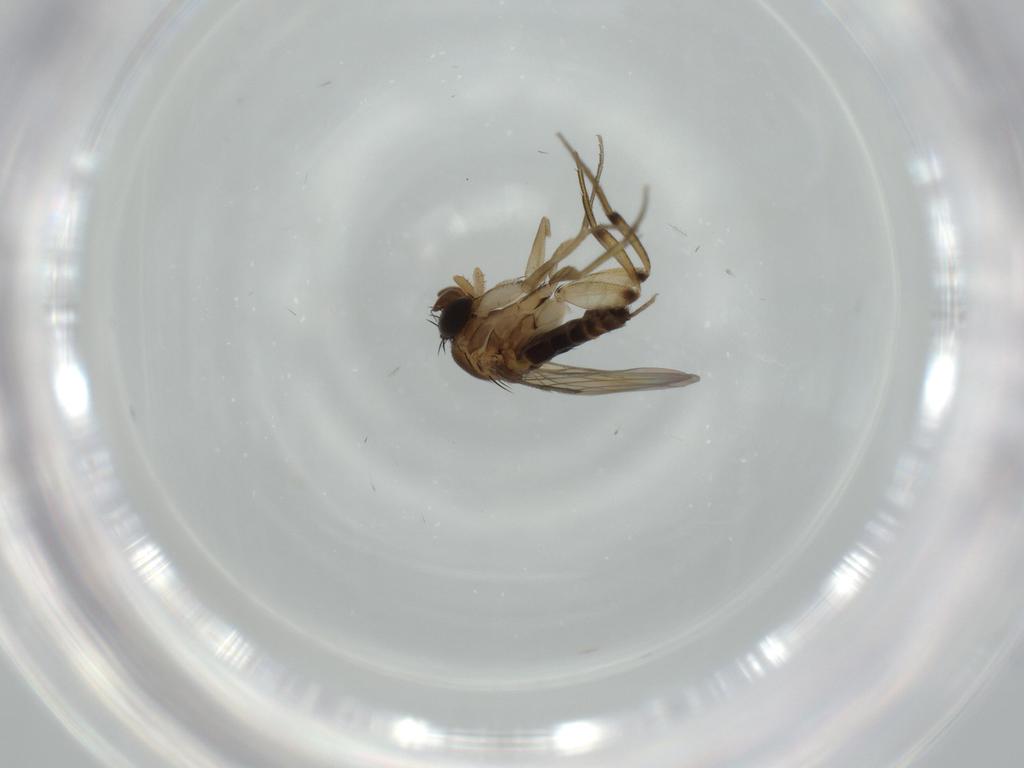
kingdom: Animalia
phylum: Arthropoda
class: Insecta
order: Diptera
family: Phoridae
